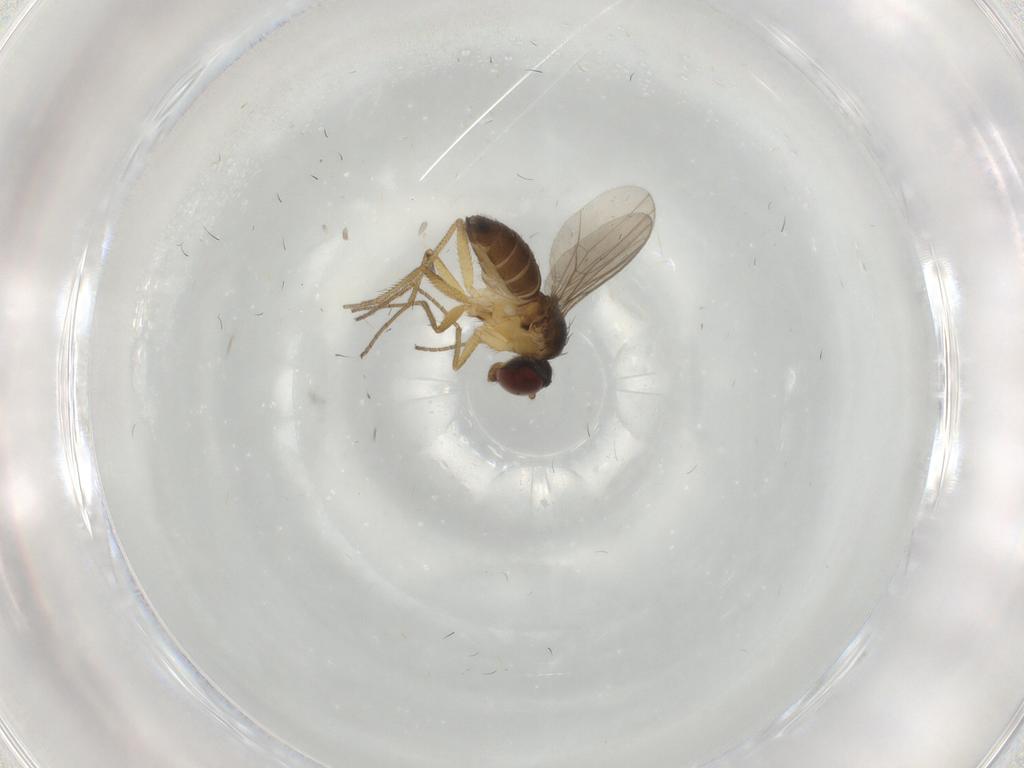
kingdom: Animalia
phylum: Arthropoda
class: Insecta
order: Diptera
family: Dolichopodidae
